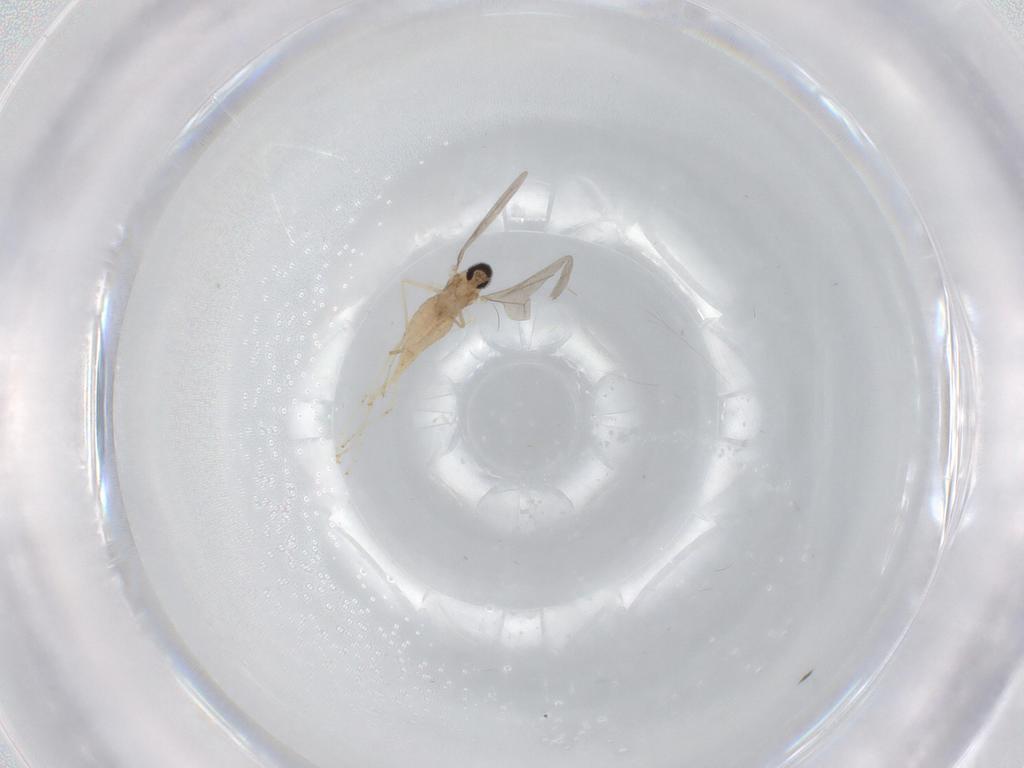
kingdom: Animalia
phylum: Arthropoda
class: Insecta
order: Diptera
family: Cecidomyiidae
